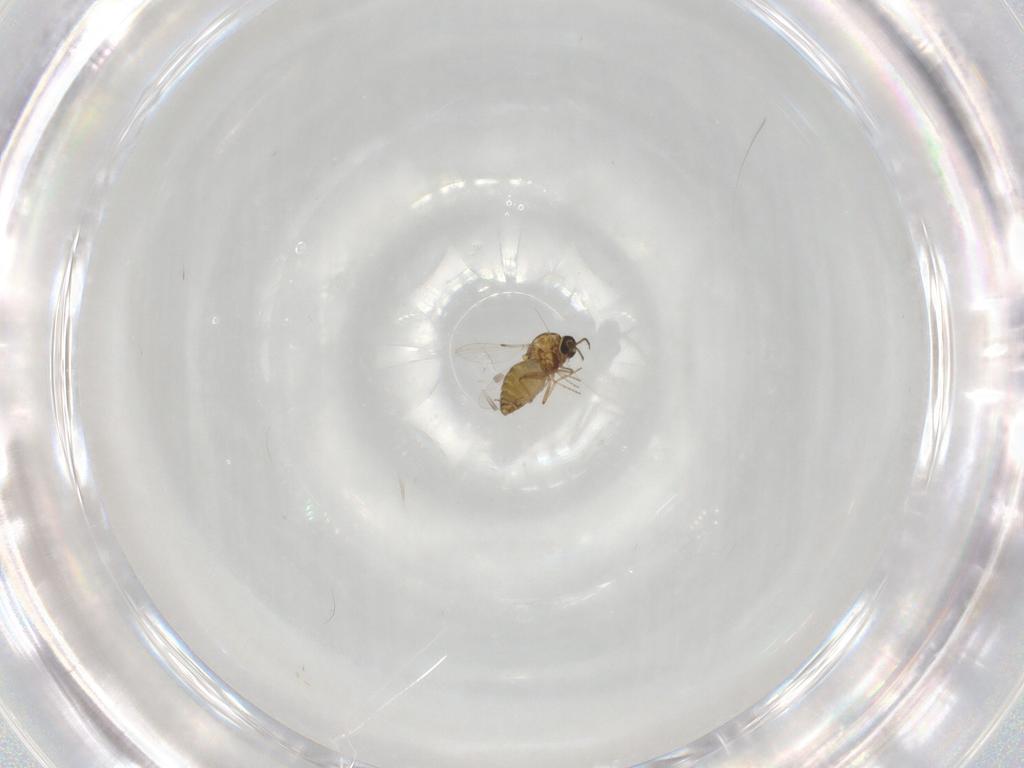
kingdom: Animalia
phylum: Arthropoda
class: Insecta
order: Diptera
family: Ceratopogonidae
